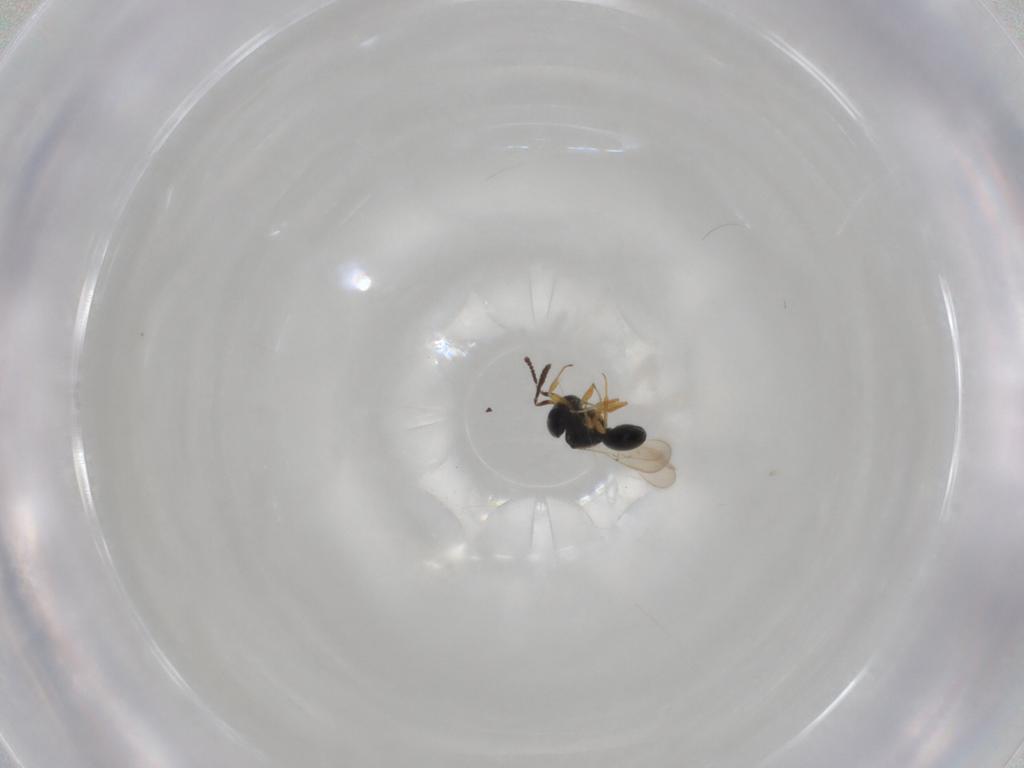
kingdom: Animalia
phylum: Arthropoda
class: Insecta
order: Hymenoptera
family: Scelionidae
